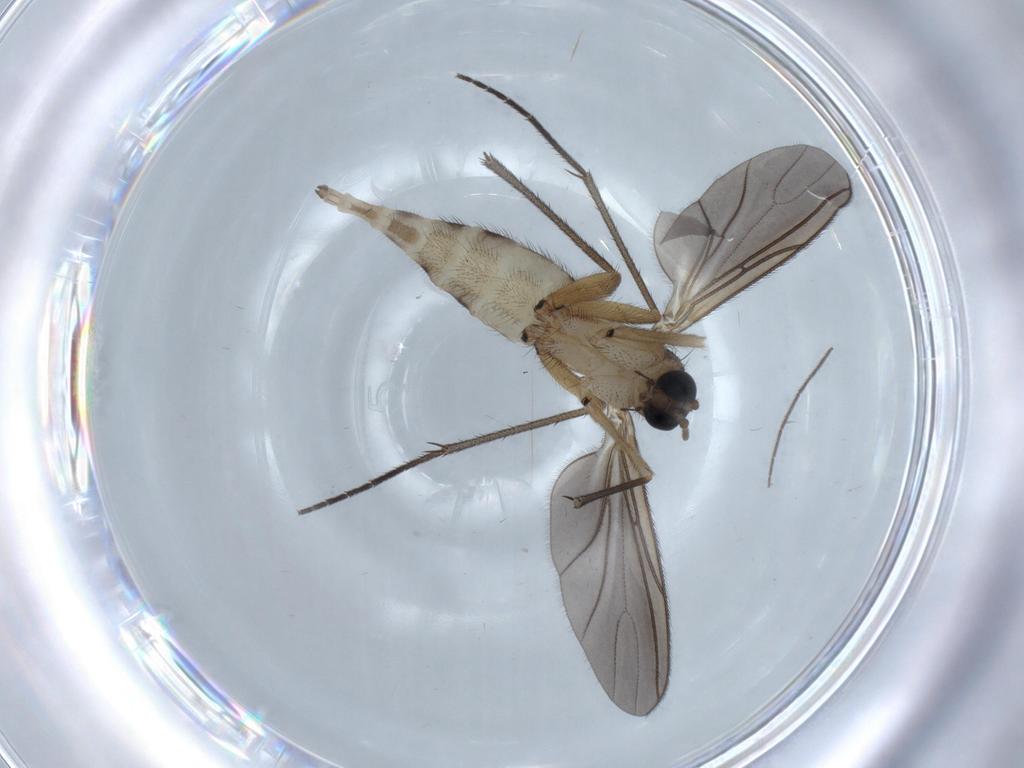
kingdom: Animalia
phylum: Arthropoda
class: Insecta
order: Diptera
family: Sciaridae
